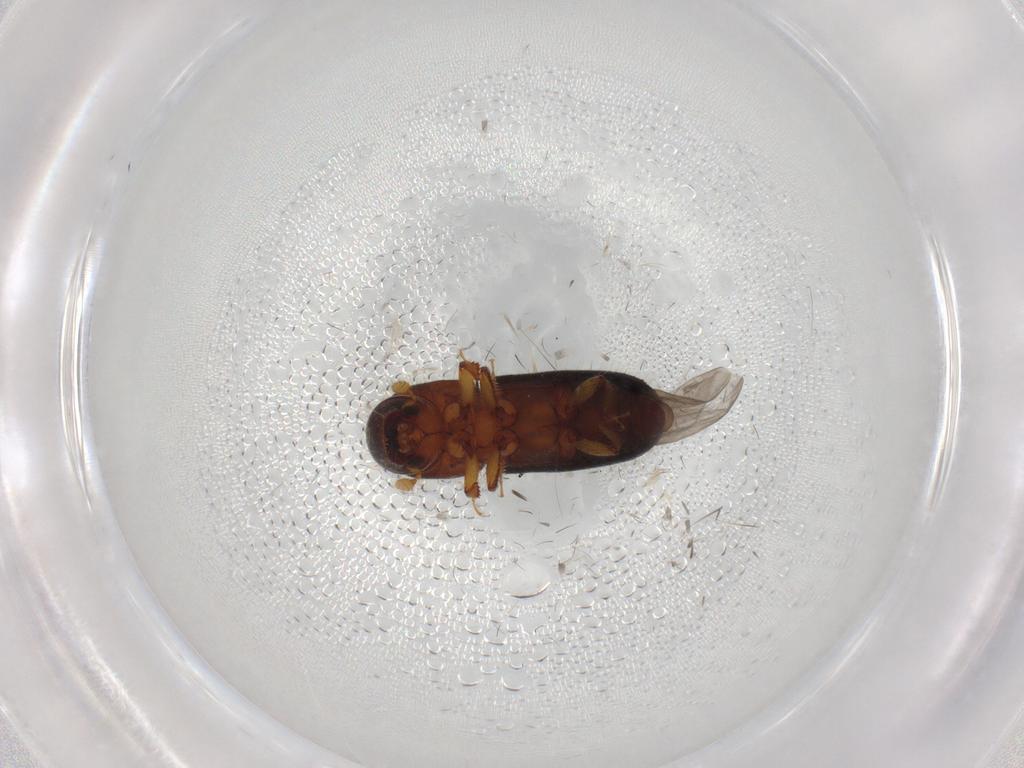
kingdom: Animalia
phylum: Arthropoda
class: Insecta
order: Coleoptera
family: Curculionidae
